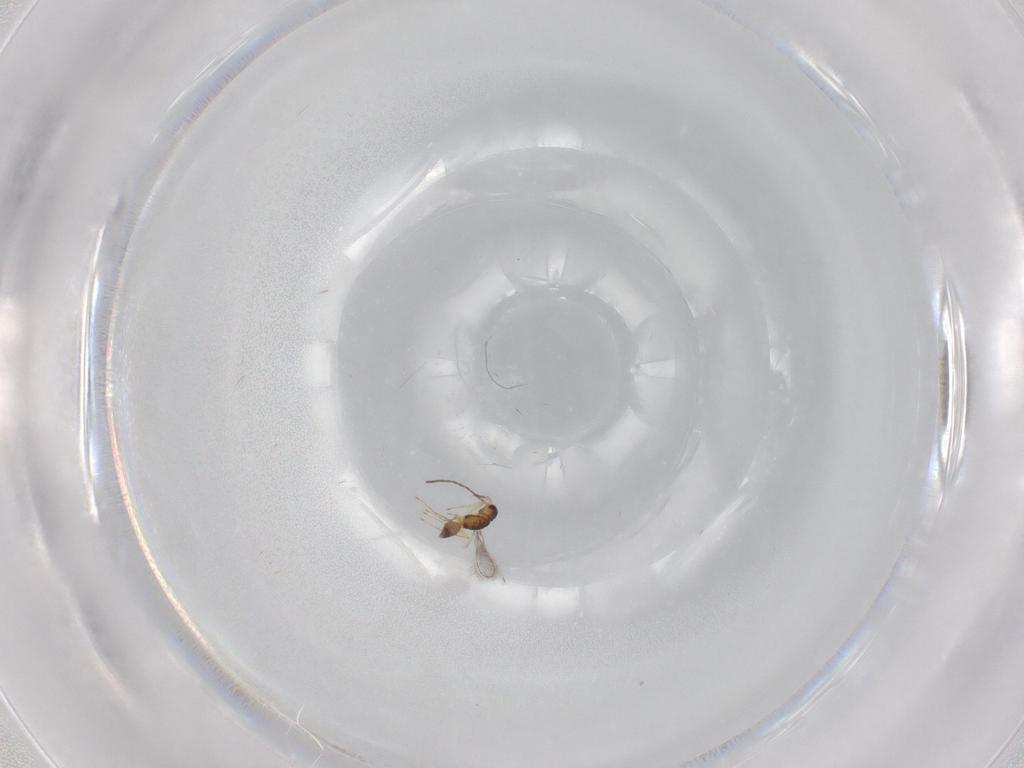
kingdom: Animalia
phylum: Arthropoda
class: Insecta
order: Hymenoptera
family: Mymaridae
